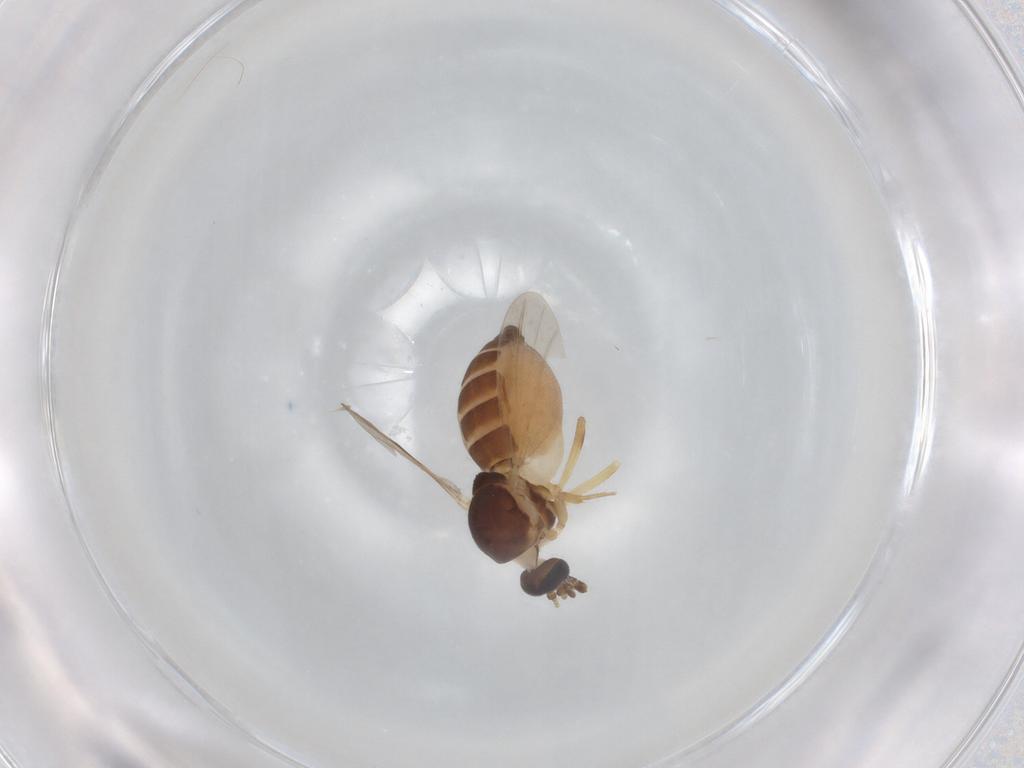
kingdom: Animalia
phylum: Arthropoda
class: Insecta
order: Diptera
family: Ceratopogonidae
